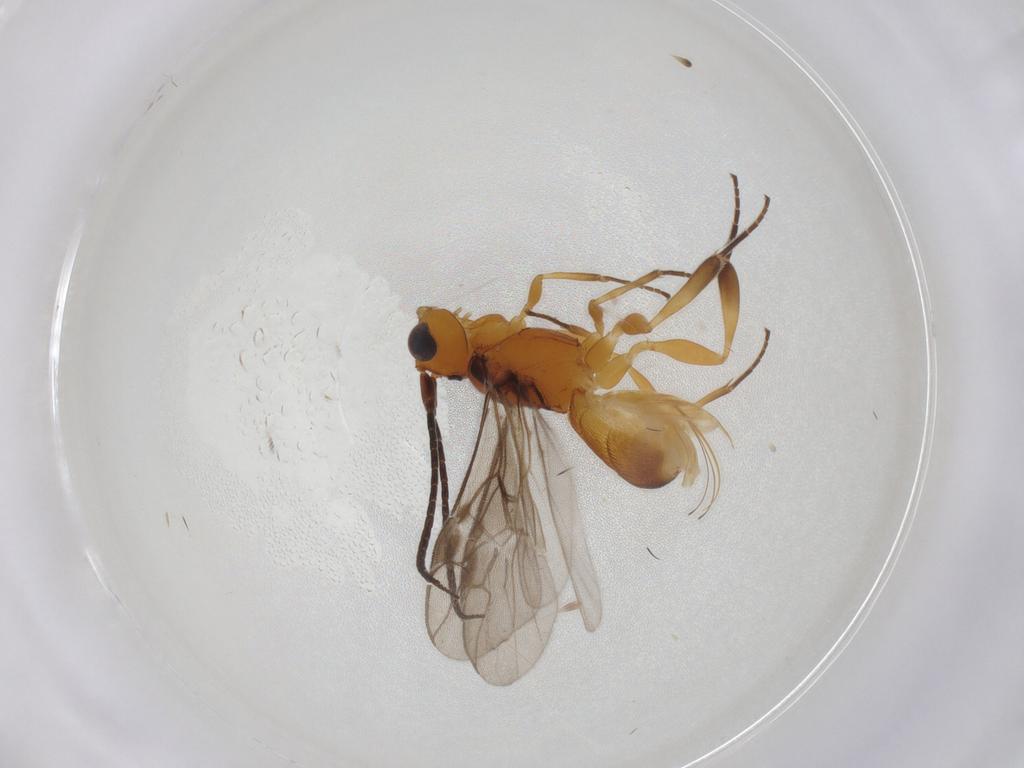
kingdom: Animalia
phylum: Arthropoda
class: Insecta
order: Hymenoptera
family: Braconidae
